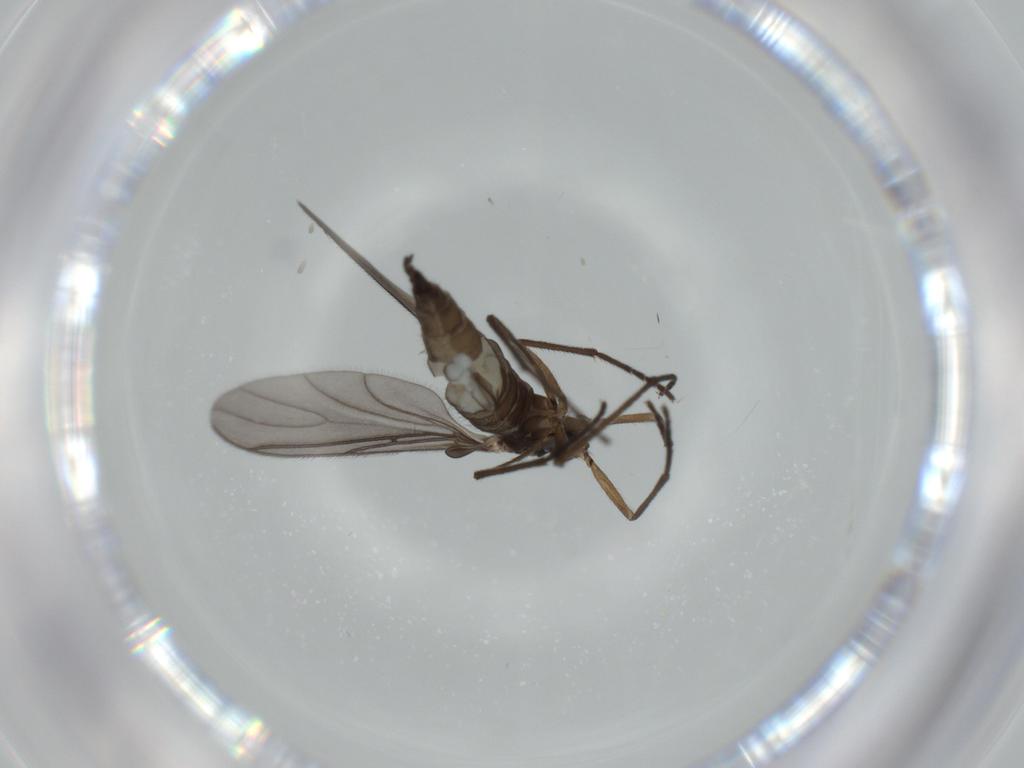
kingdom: Animalia
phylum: Arthropoda
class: Insecta
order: Diptera
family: Sciaridae
